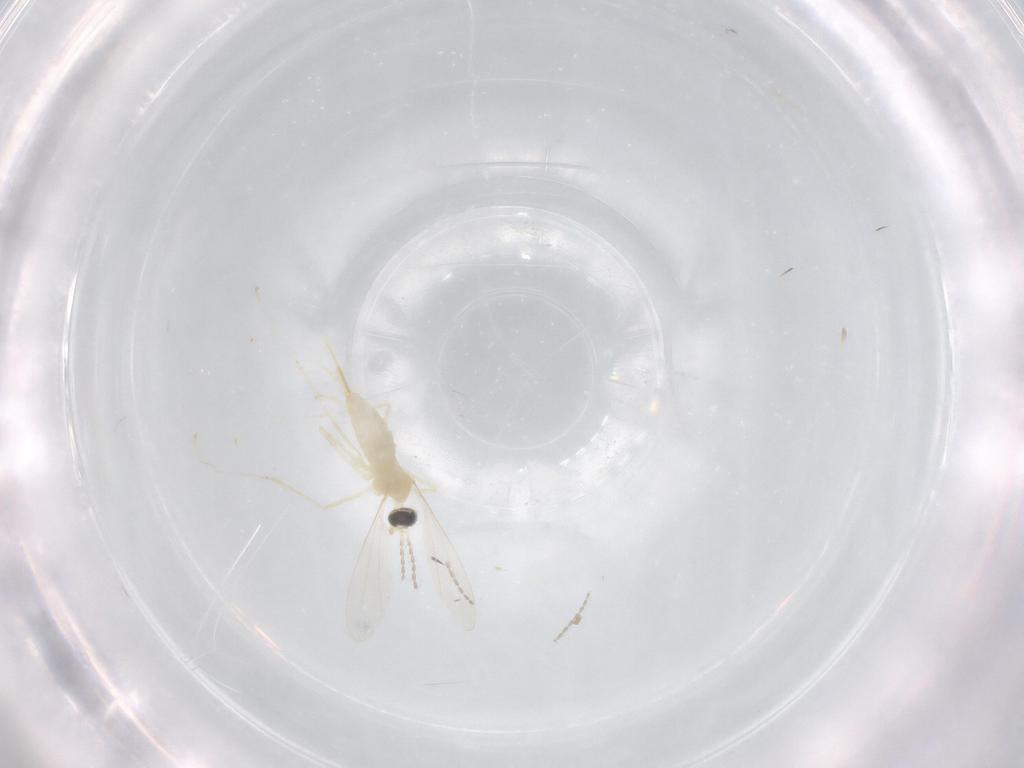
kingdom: Animalia
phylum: Arthropoda
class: Insecta
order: Diptera
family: Cecidomyiidae
